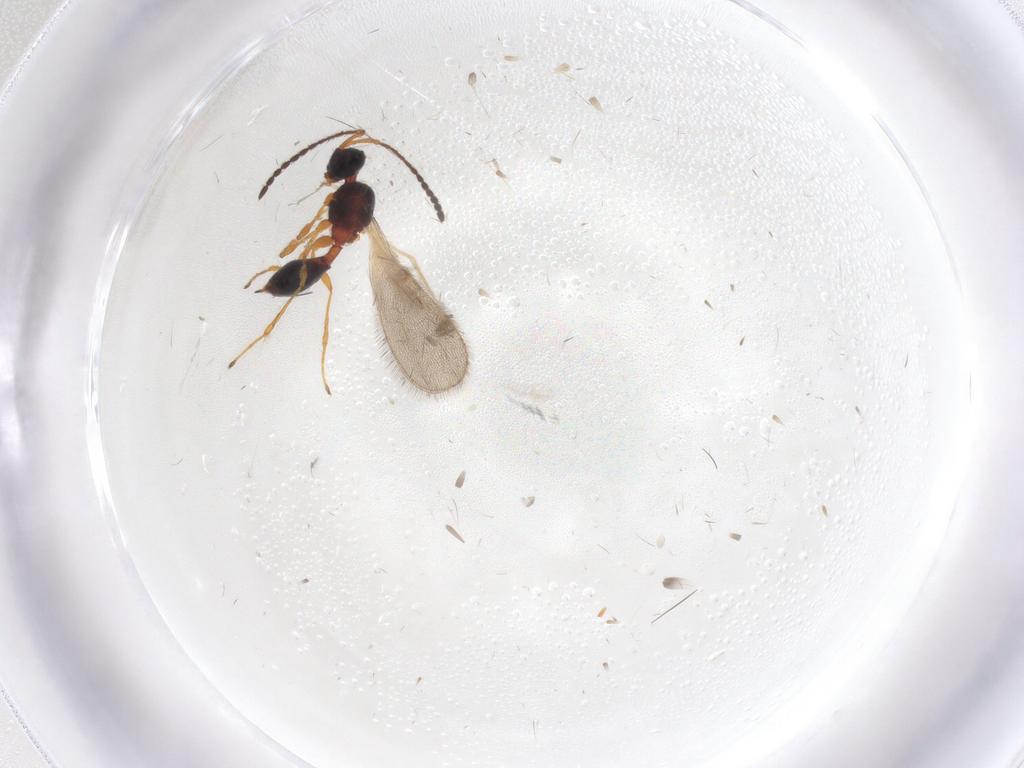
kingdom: Animalia
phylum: Arthropoda
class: Insecta
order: Hymenoptera
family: Diapriidae
